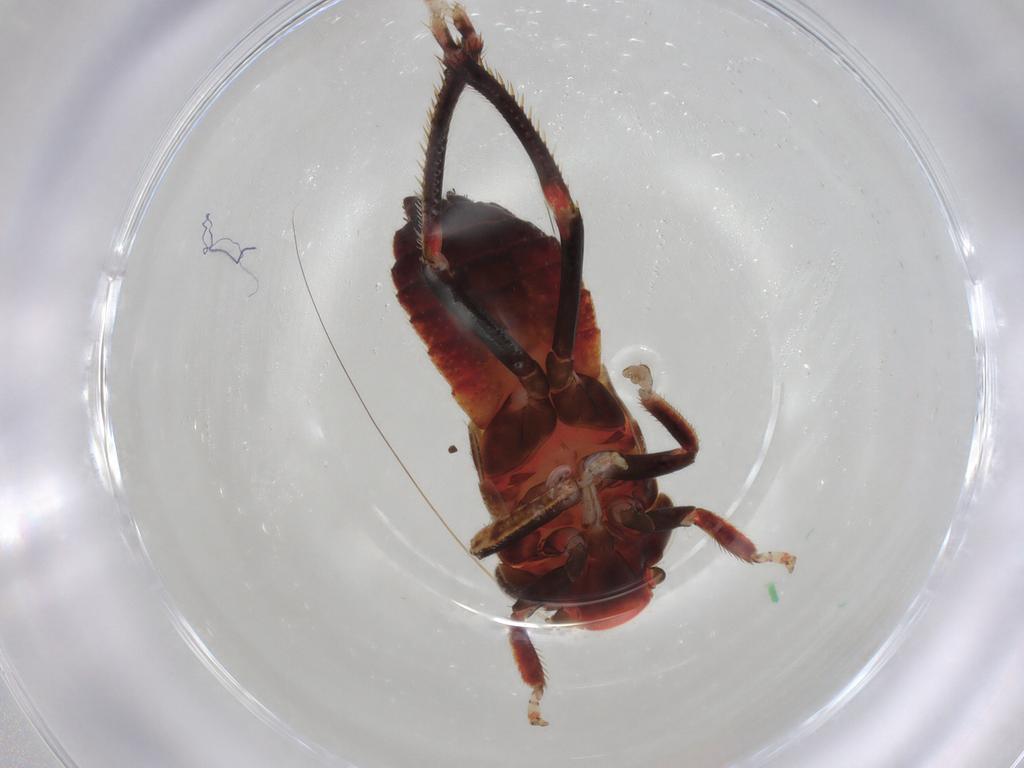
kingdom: Animalia
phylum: Arthropoda
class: Insecta
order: Hemiptera
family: Cicadellidae
